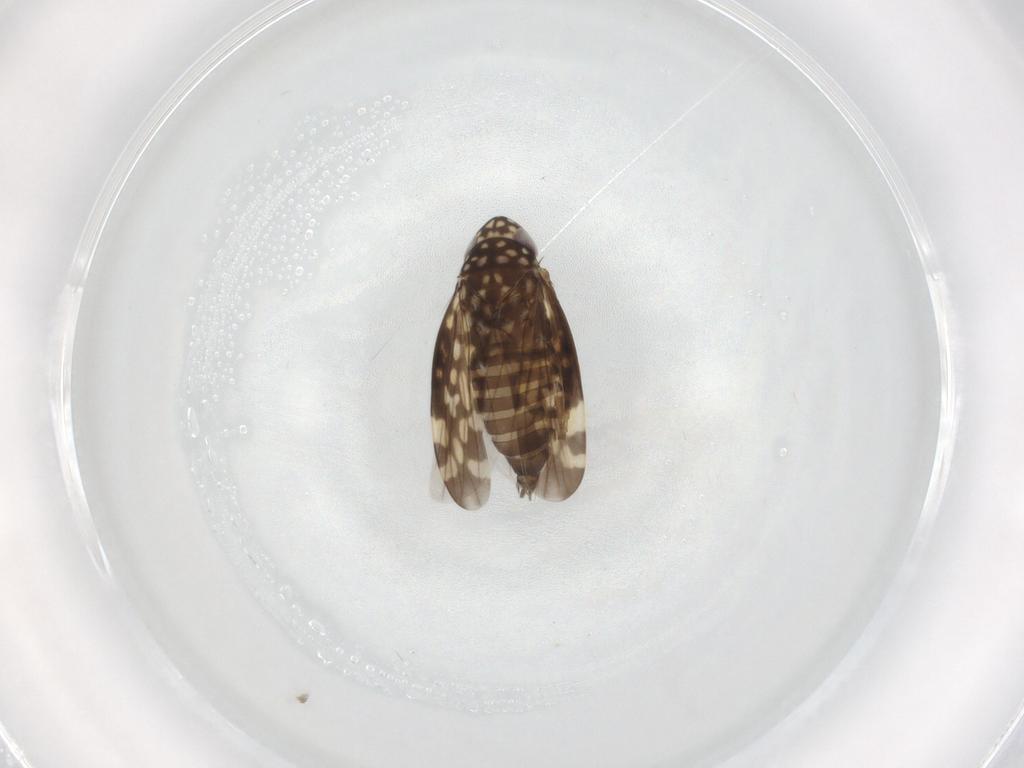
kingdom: Animalia
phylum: Arthropoda
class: Insecta
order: Hemiptera
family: Cicadellidae
